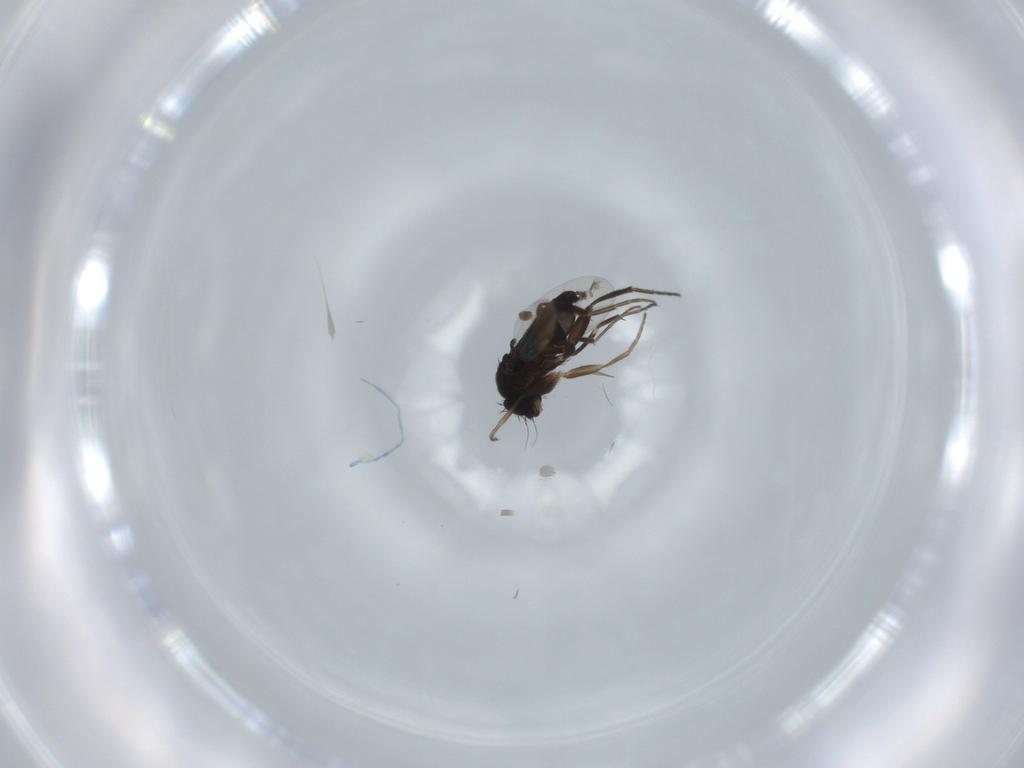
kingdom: Animalia
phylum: Arthropoda
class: Insecta
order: Diptera
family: Phoridae
